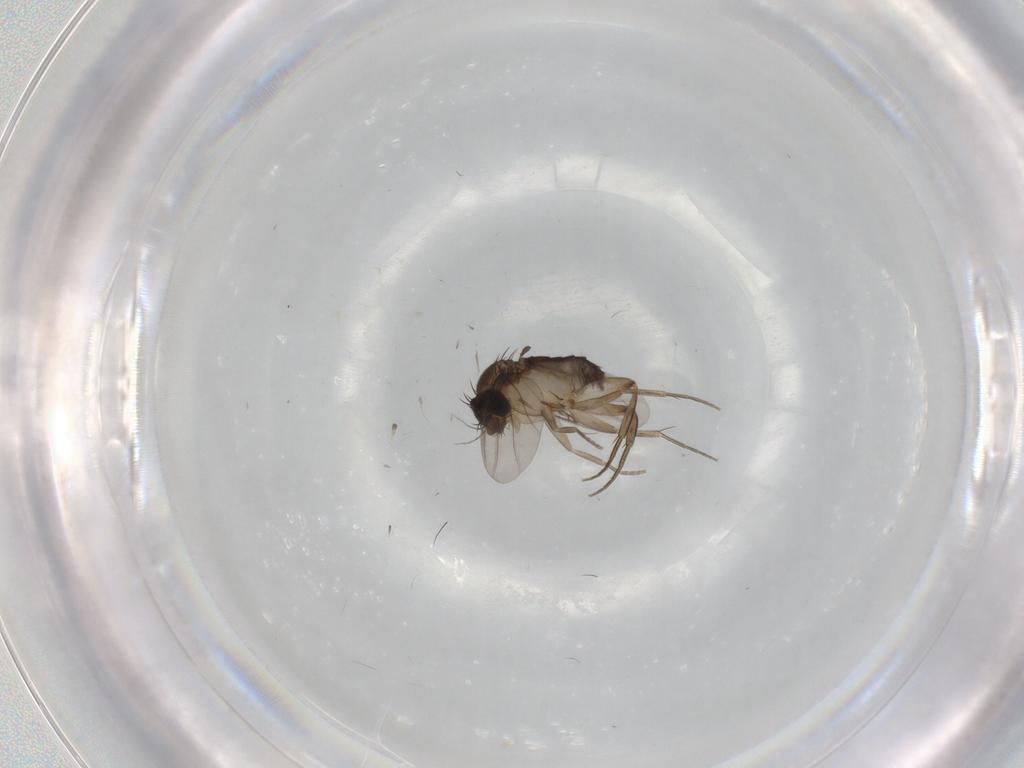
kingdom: Animalia
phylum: Arthropoda
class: Insecta
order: Diptera
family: Phoridae
